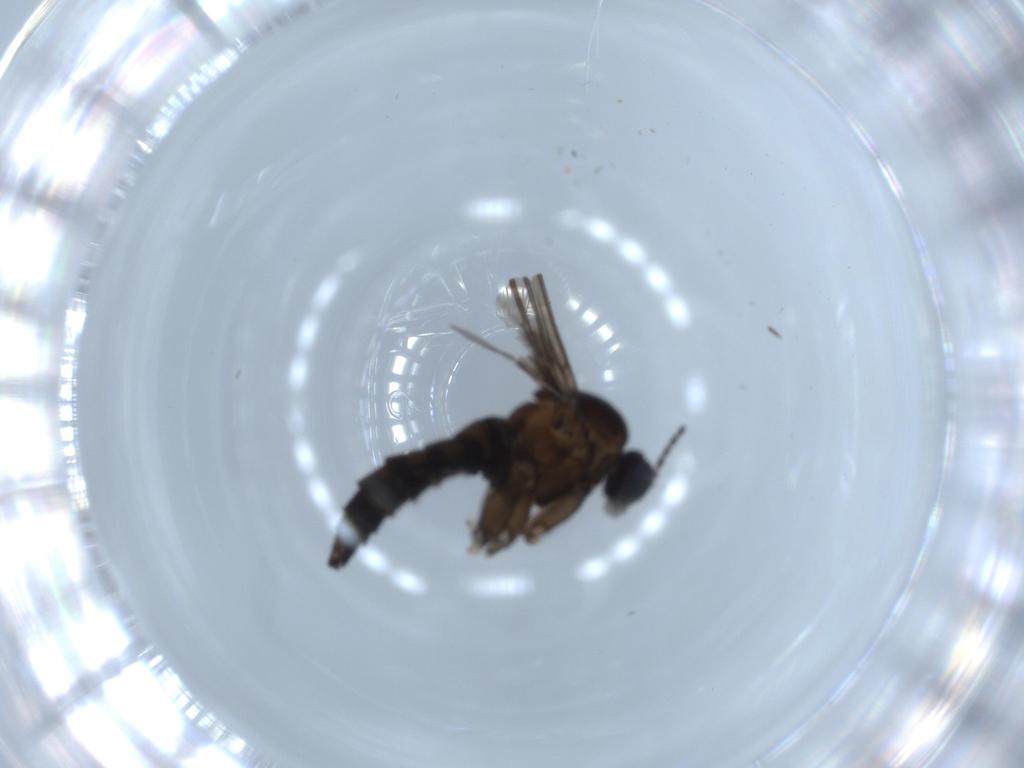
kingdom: Animalia
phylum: Arthropoda
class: Insecta
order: Diptera
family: Sciaridae
